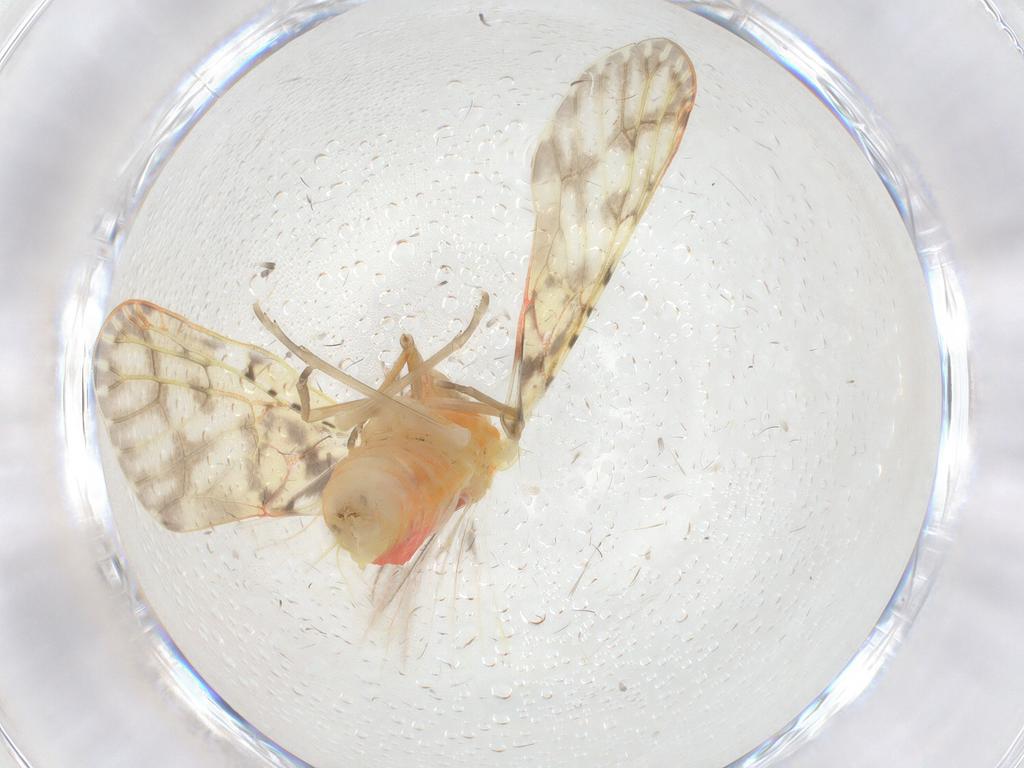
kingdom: Animalia
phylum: Arthropoda
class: Insecta
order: Hemiptera
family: Derbidae
